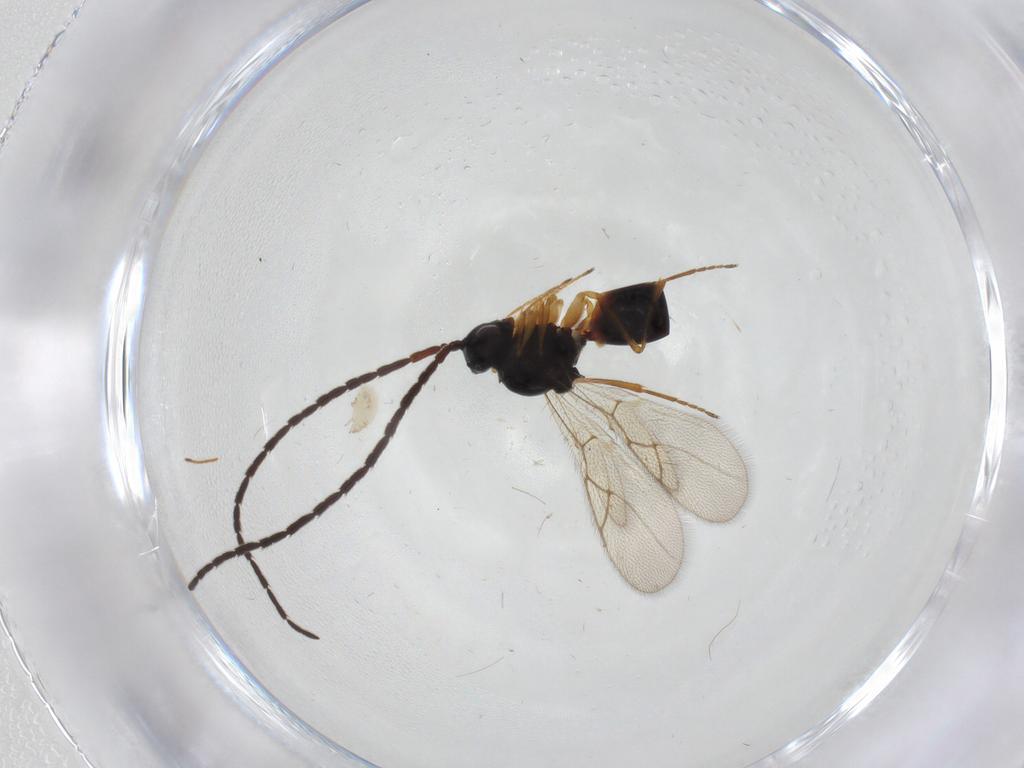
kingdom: Animalia
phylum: Arthropoda
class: Insecta
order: Hymenoptera
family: Figitidae
